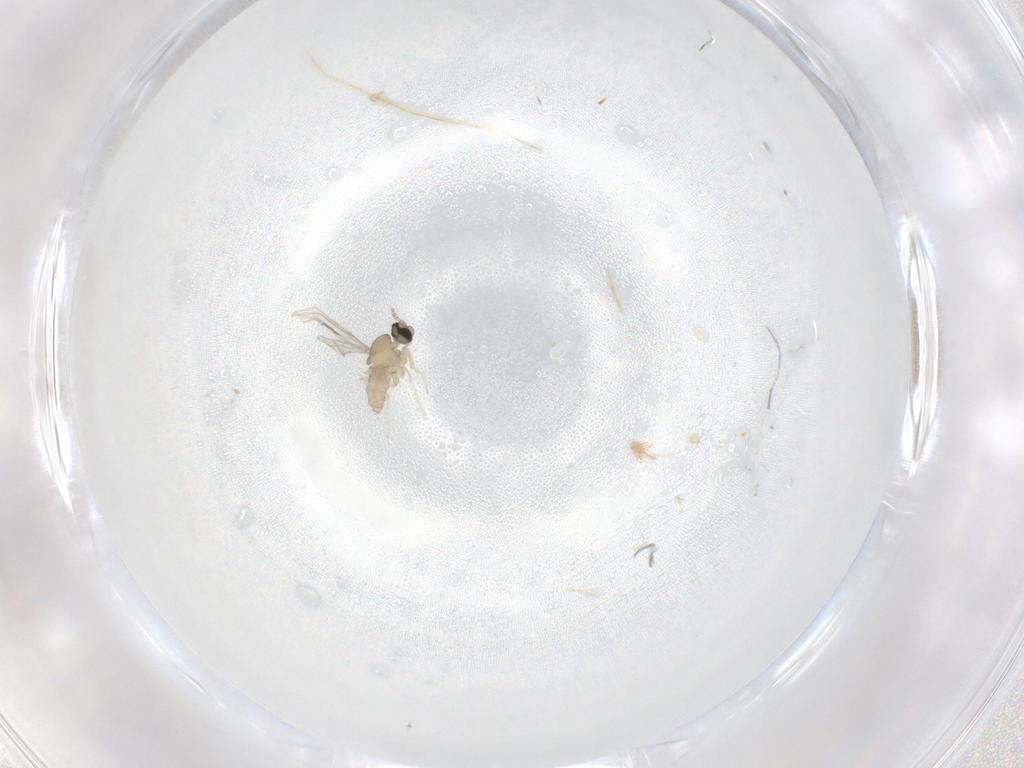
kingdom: Animalia
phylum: Arthropoda
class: Insecta
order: Diptera
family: Cecidomyiidae
